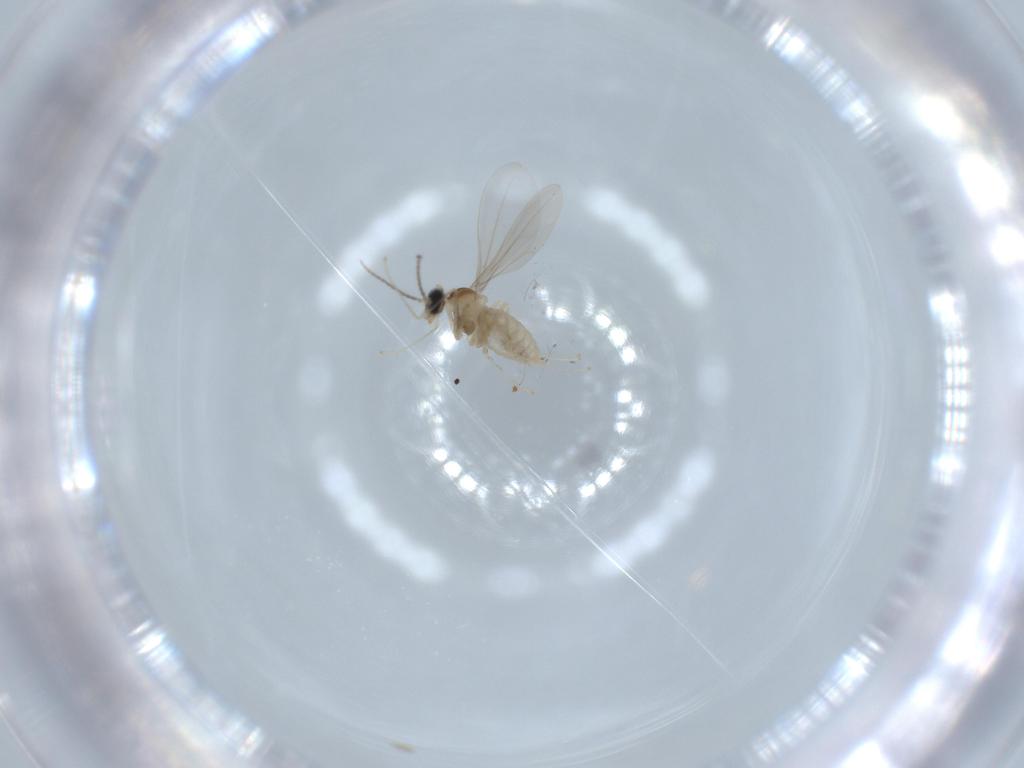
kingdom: Animalia
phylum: Arthropoda
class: Insecta
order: Diptera
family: Cecidomyiidae
